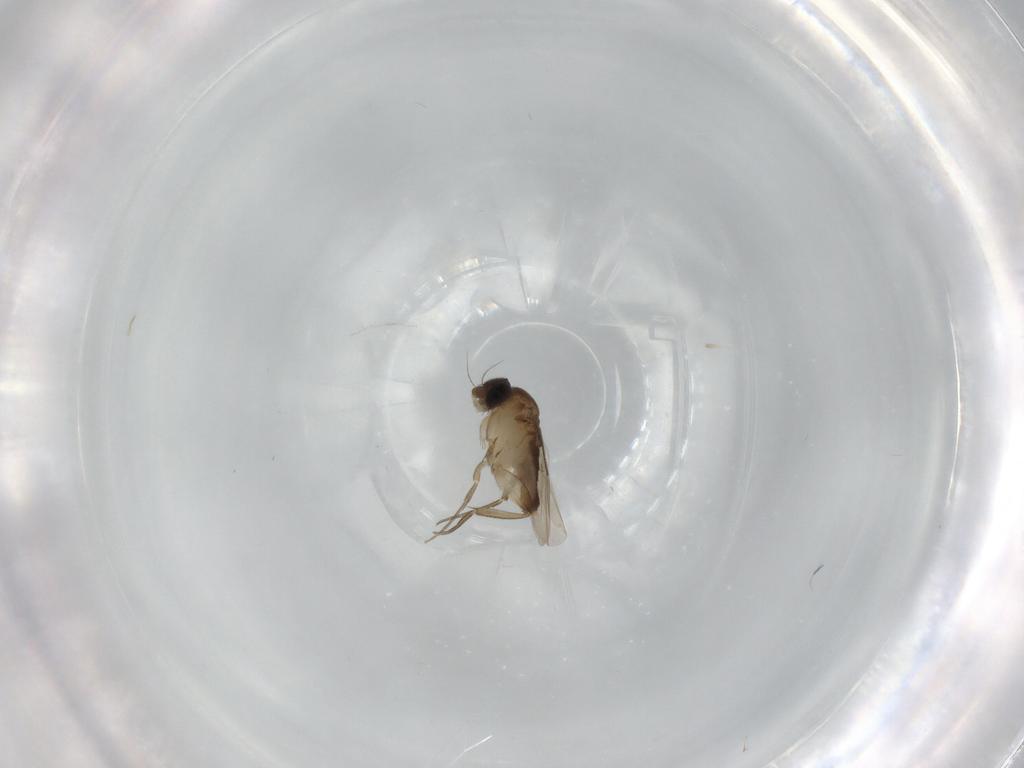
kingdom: Animalia
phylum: Arthropoda
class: Insecta
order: Diptera
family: Phoridae
